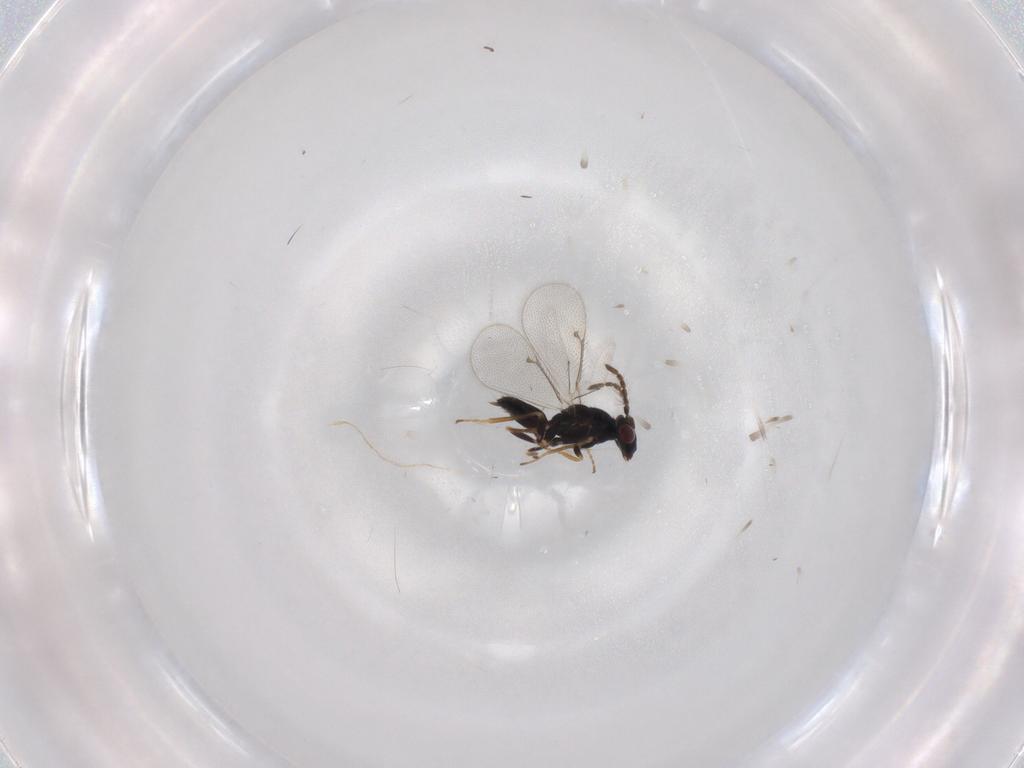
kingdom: Animalia
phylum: Arthropoda
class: Insecta
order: Hymenoptera
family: Eulophidae
